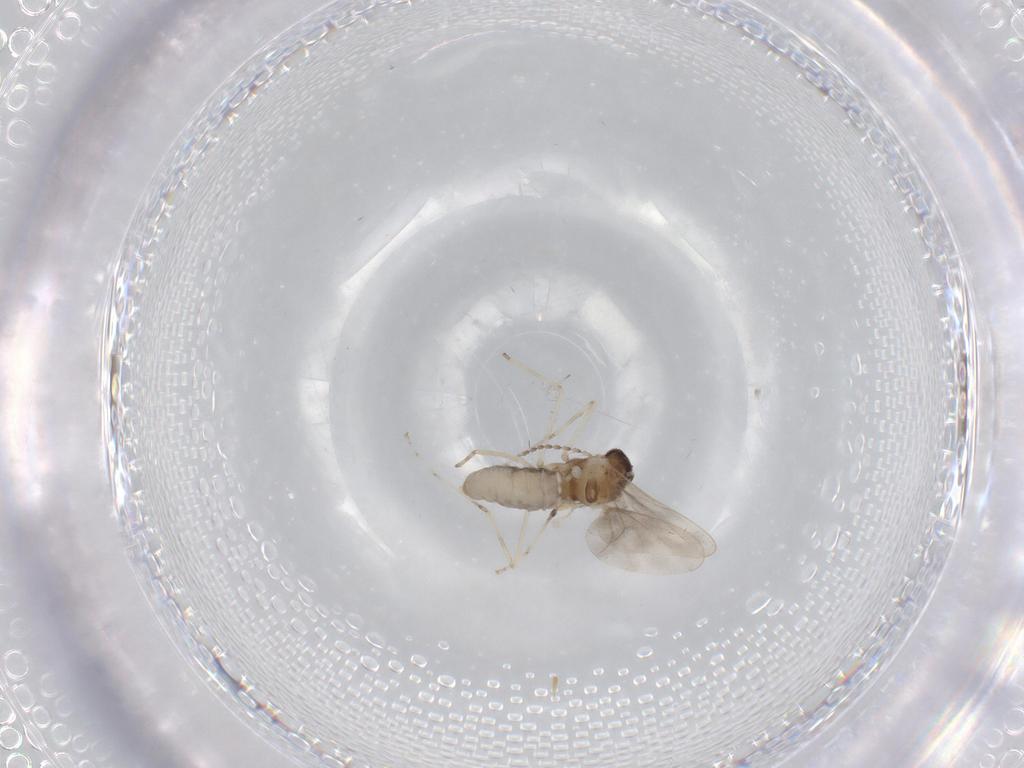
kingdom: Animalia
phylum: Arthropoda
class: Insecta
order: Diptera
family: Cecidomyiidae
